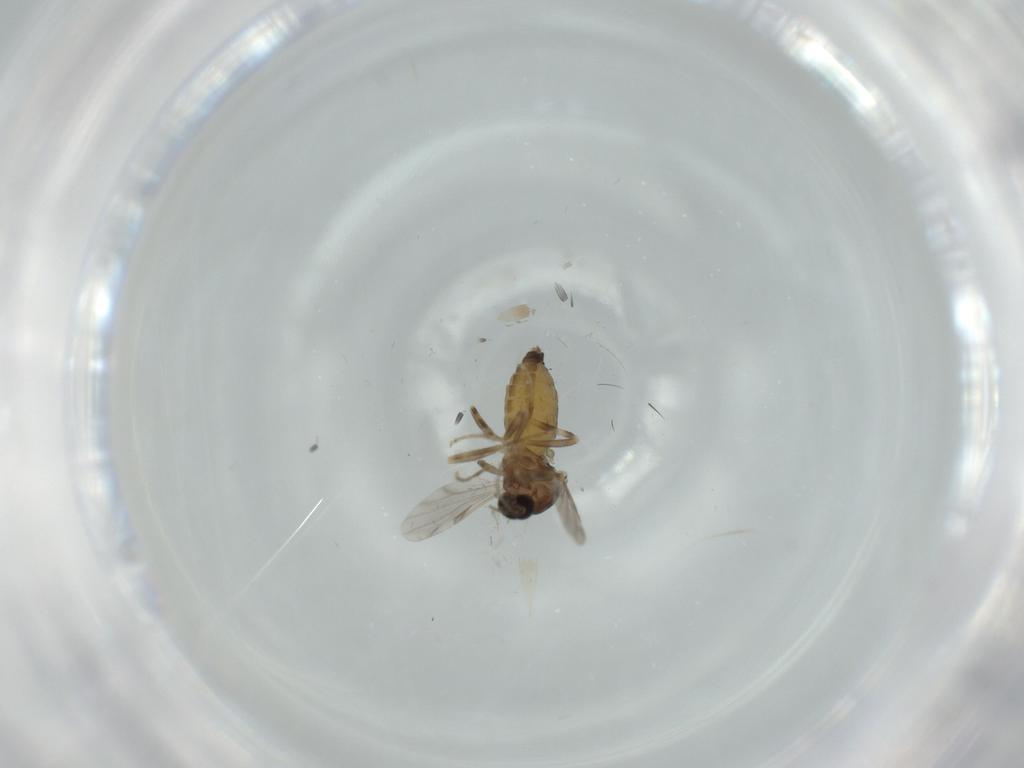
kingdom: Animalia
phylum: Arthropoda
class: Insecta
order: Diptera
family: Ceratopogonidae
